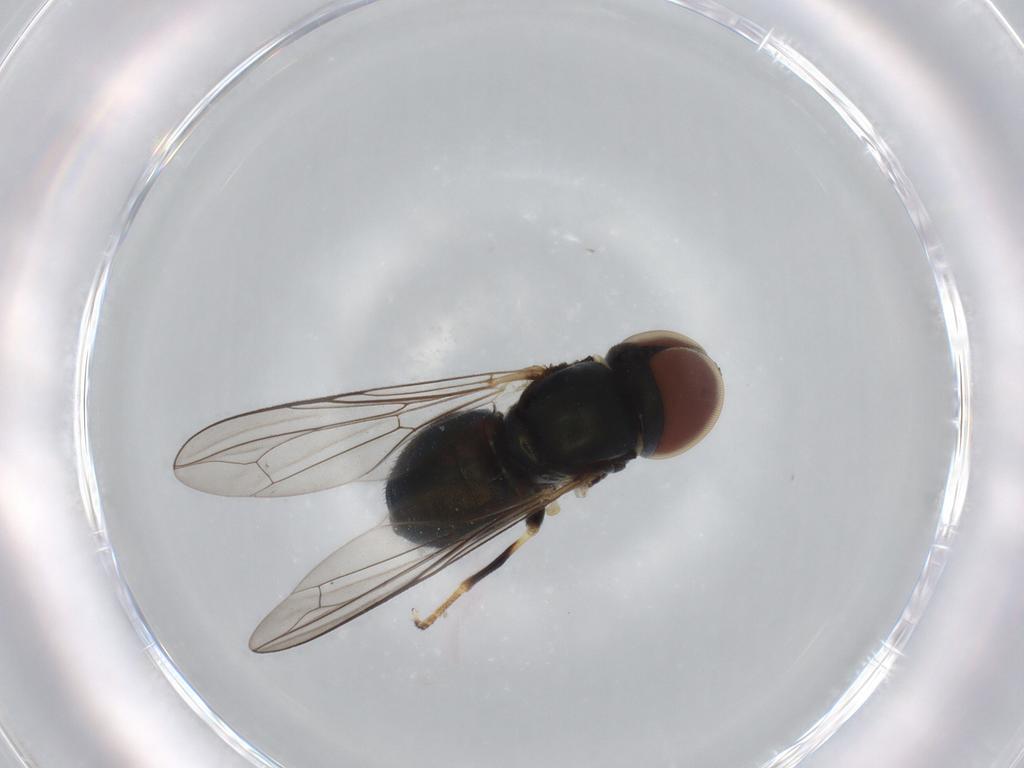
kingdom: Animalia
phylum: Arthropoda
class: Insecta
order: Diptera
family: Pipunculidae
